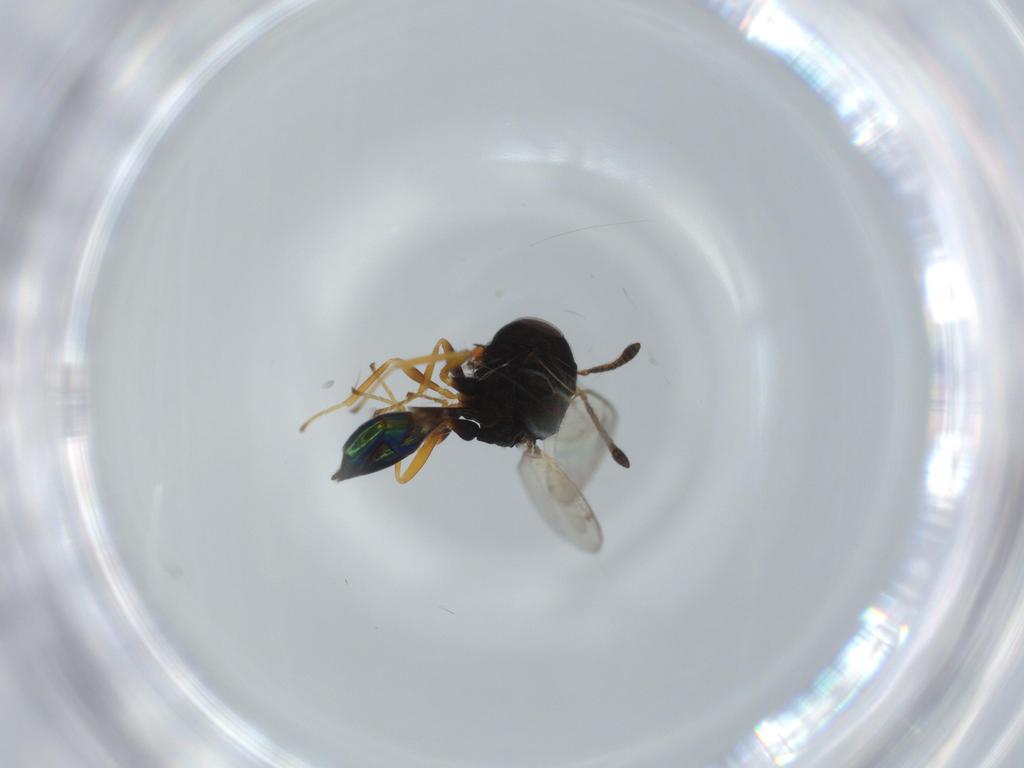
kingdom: Animalia
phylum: Arthropoda
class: Insecta
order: Hymenoptera
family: Pteromalidae
